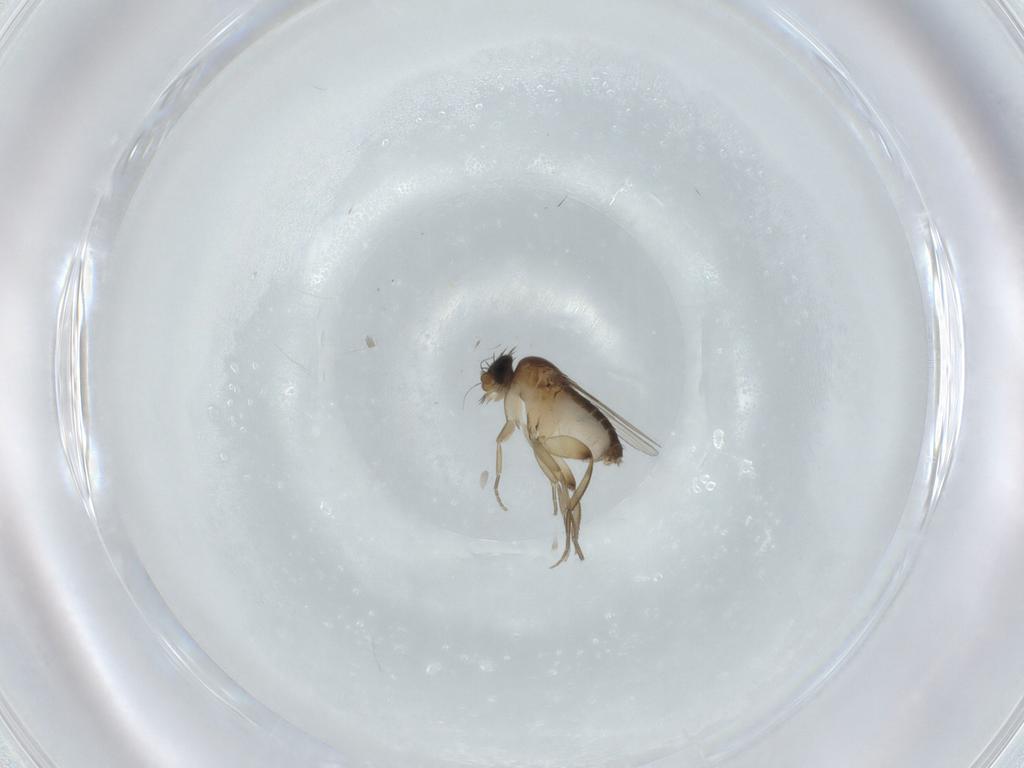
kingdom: Animalia
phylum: Arthropoda
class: Insecta
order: Diptera
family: Phoridae
